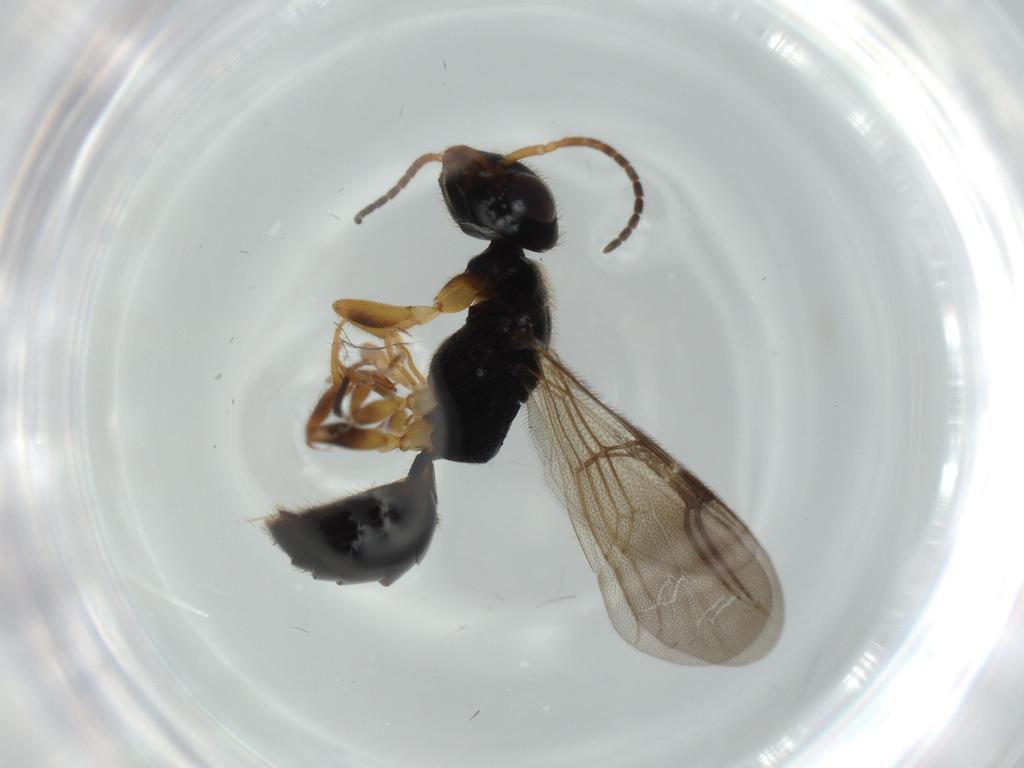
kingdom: Animalia
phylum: Arthropoda
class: Insecta
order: Hymenoptera
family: Bethylidae
